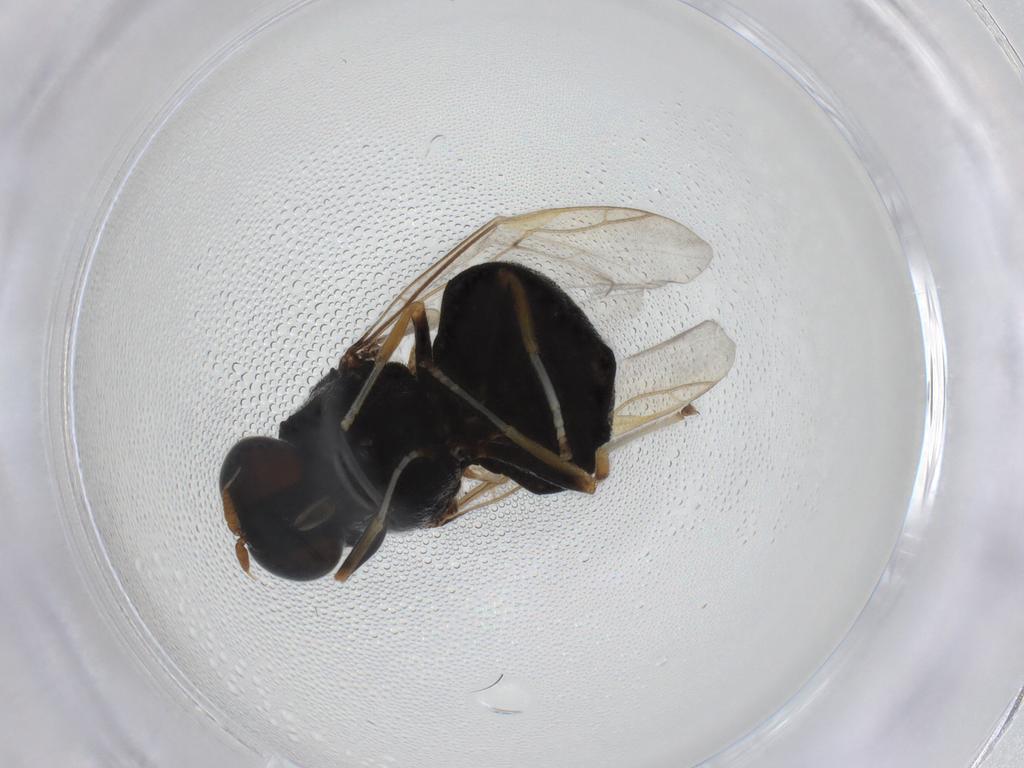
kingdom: Animalia
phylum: Arthropoda
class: Insecta
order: Diptera
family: Stratiomyidae
